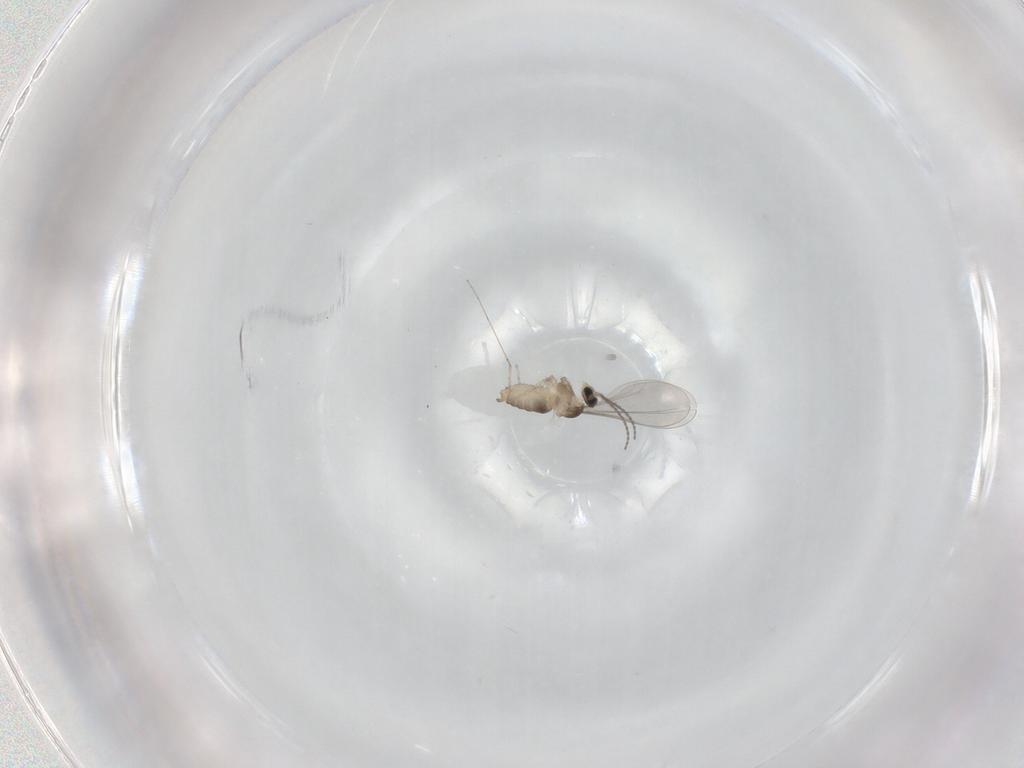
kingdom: Animalia
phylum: Arthropoda
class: Insecta
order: Diptera
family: Cecidomyiidae
